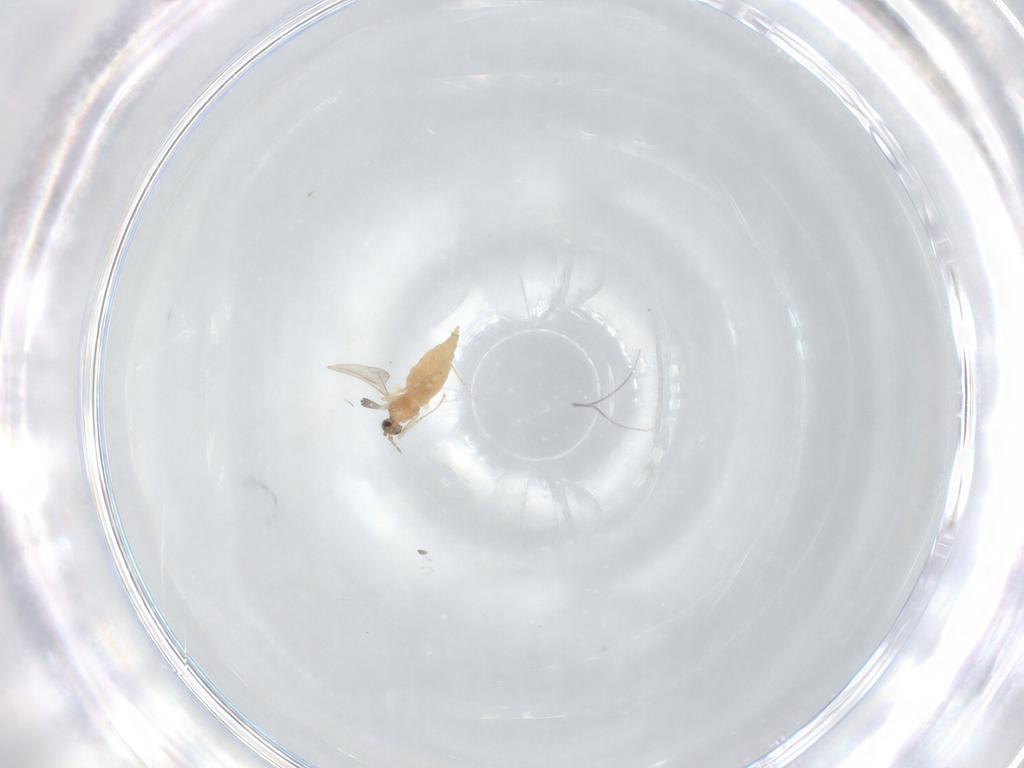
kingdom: Animalia
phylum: Arthropoda
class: Insecta
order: Diptera
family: Cecidomyiidae
